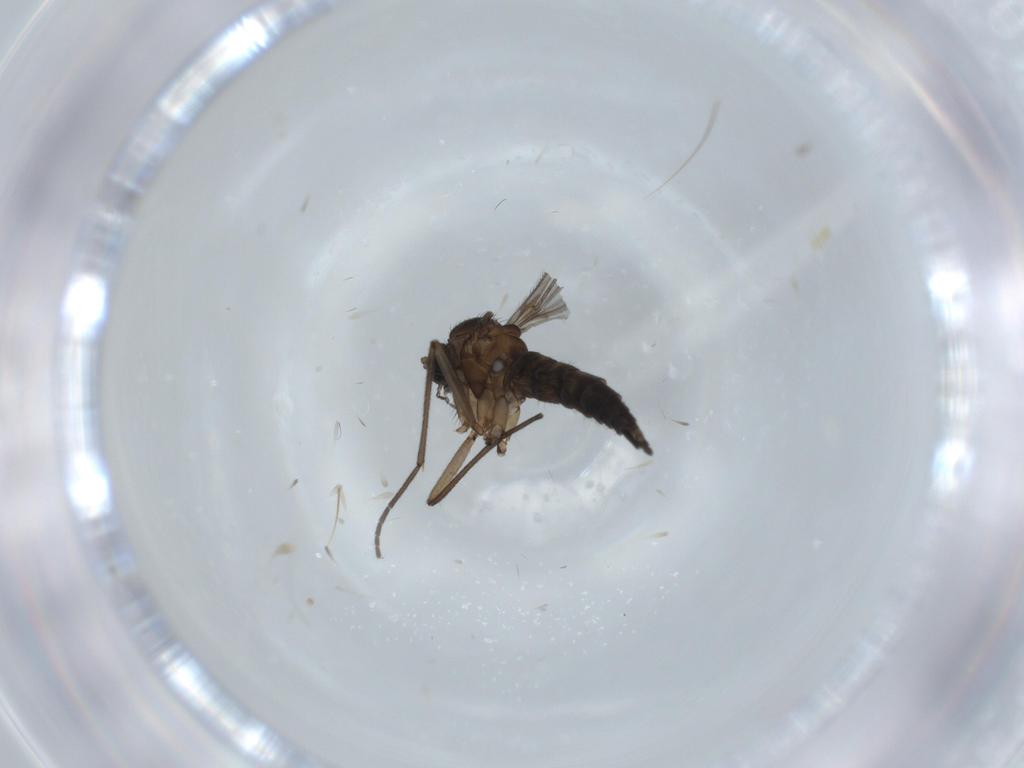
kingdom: Animalia
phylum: Arthropoda
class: Insecta
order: Diptera
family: Sciaridae
